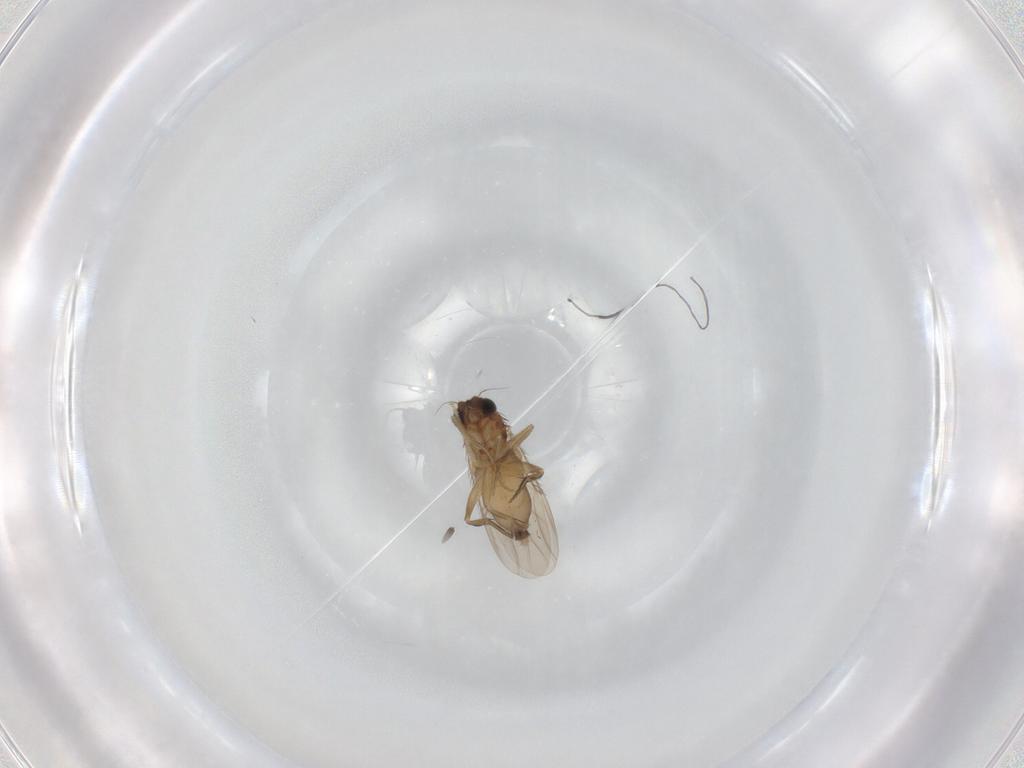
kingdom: Animalia
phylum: Arthropoda
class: Insecta
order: Diptera
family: Phoridae
